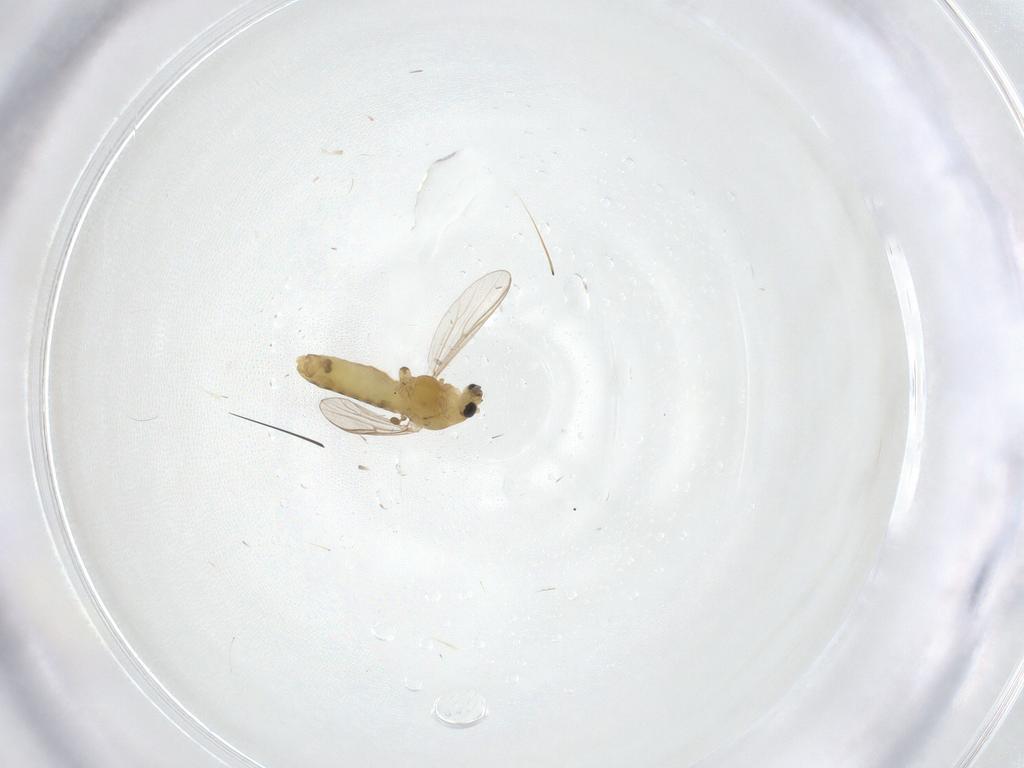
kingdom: Animalia
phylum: Arthropoda
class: Insecta
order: Diptera
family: Chironomidae
